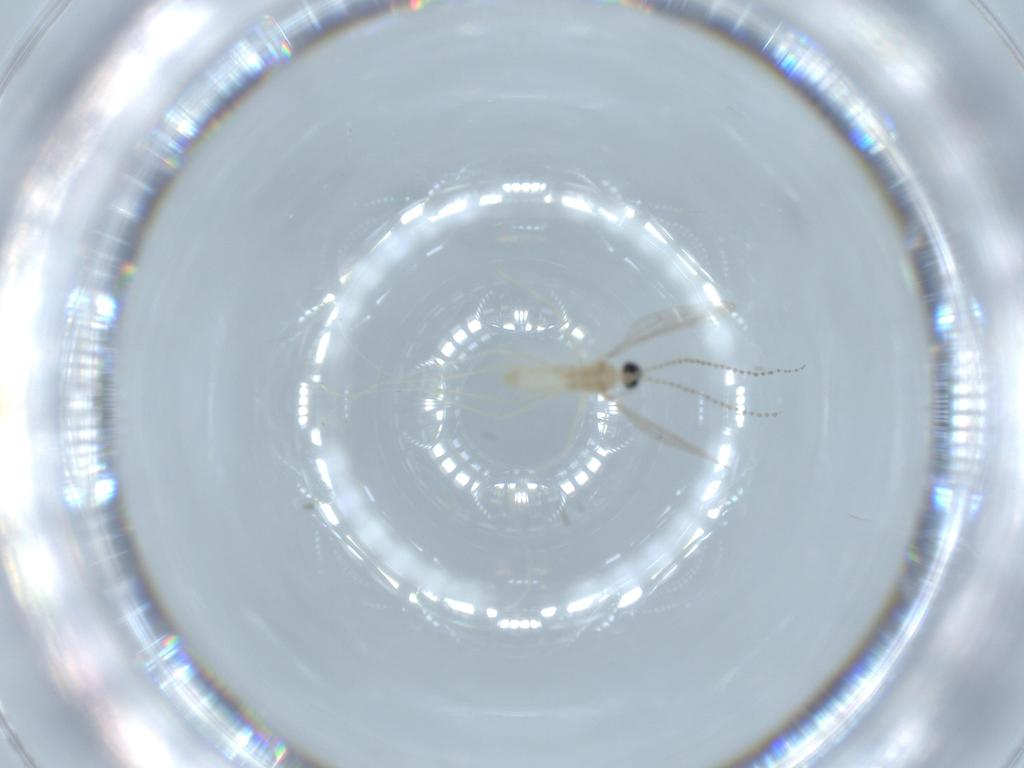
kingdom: Animalia
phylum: Arthropoda
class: Insecta
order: Diptera
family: Cecidomyiidae
